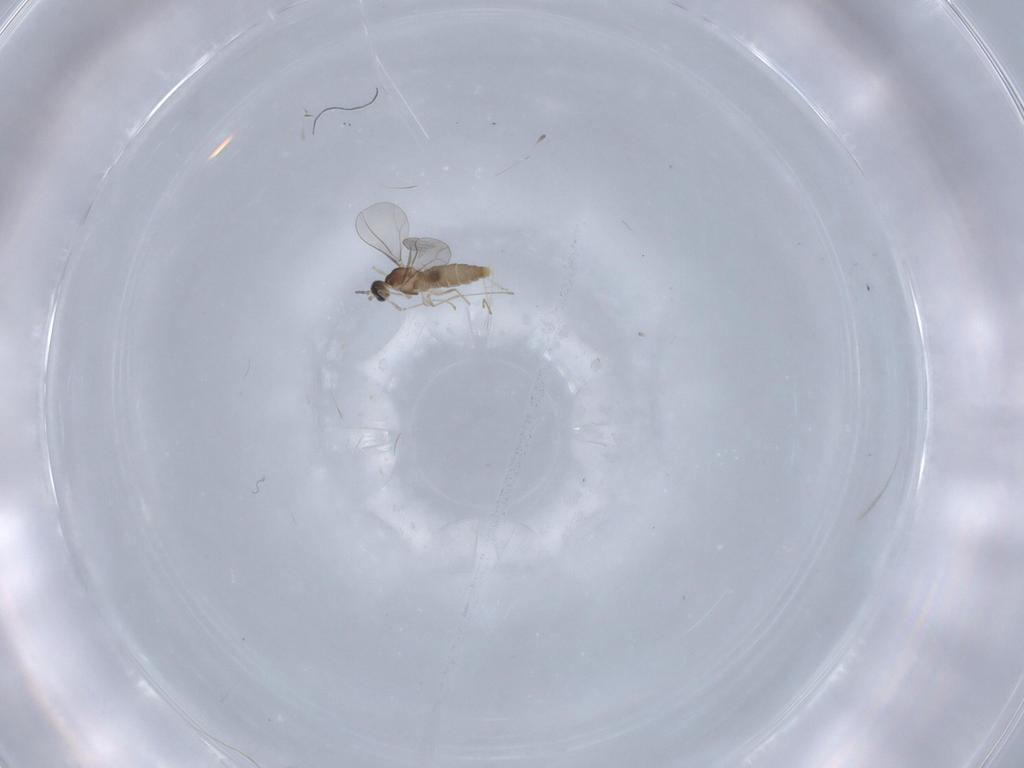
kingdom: Animalia
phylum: Arthropoda
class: Insecta
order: Diptera
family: Cecidomyiidae
